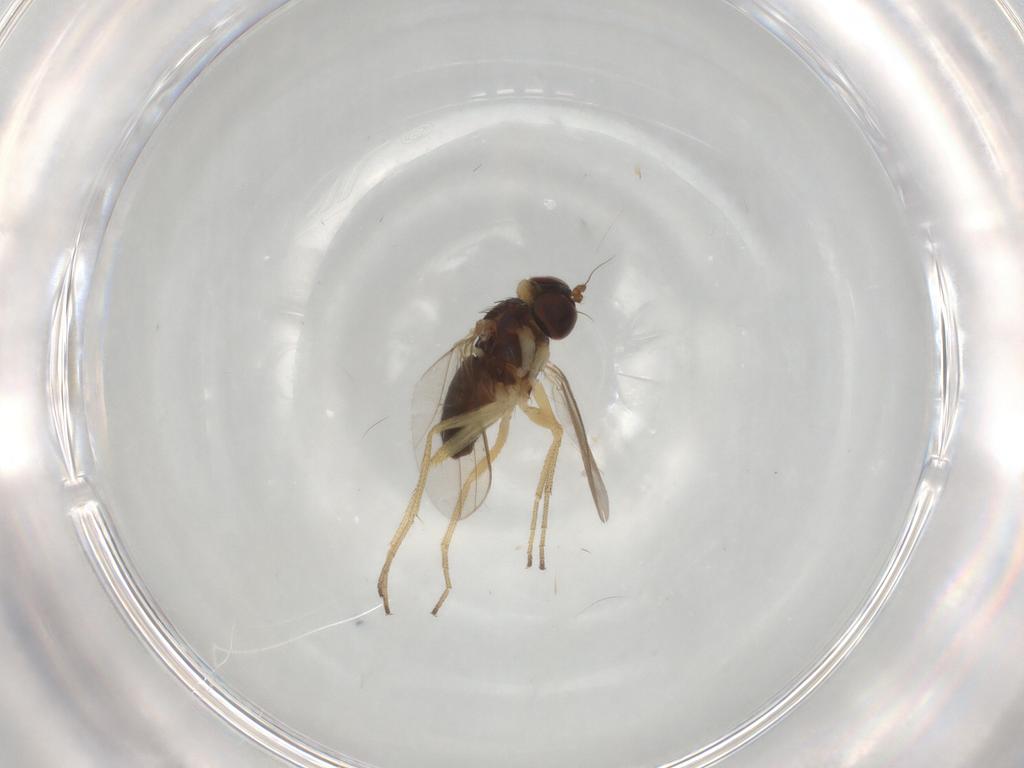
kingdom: Animalia
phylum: Arthropoda
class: Insecta
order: Diptera
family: Dolichopodidae
